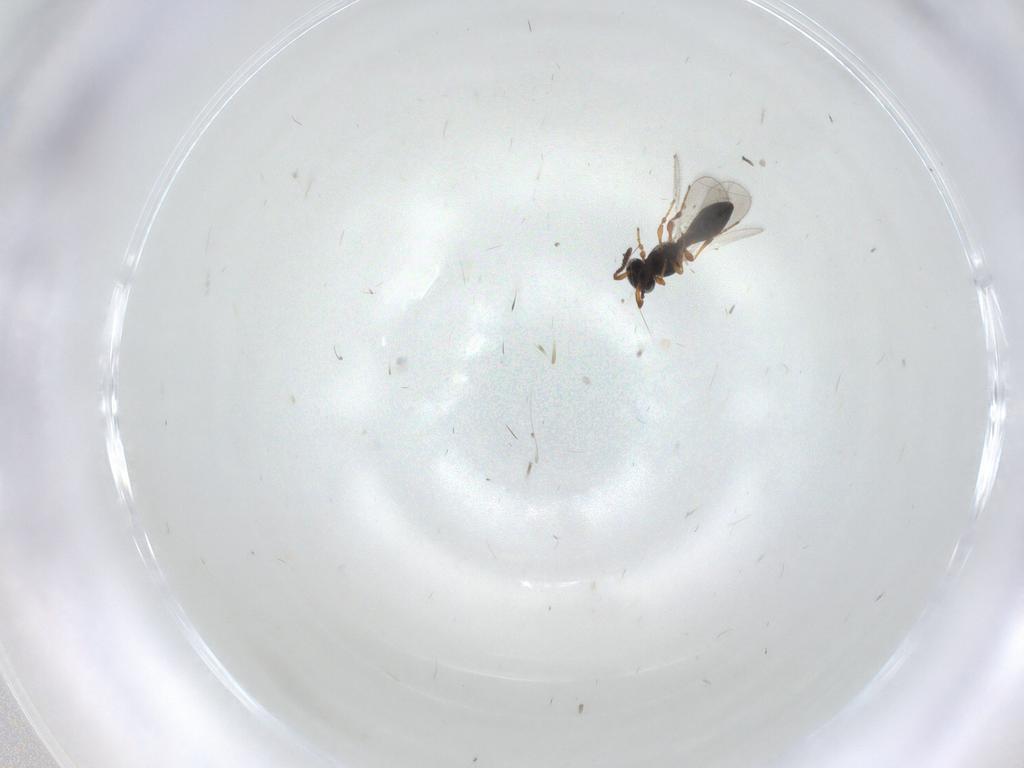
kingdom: Animalia
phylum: Arthropoda
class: Insecta
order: Hymenoptera
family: Platygastridae
